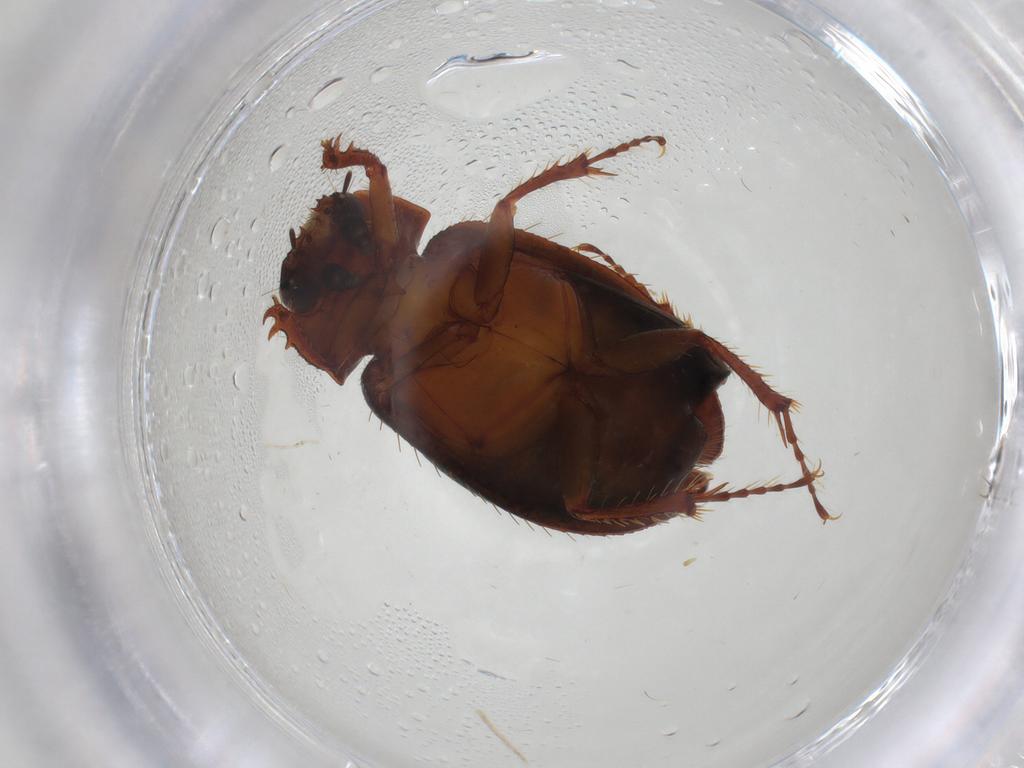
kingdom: Animalia
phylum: Arthropoda
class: Insecta
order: Coleoptera
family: Hybosoridae
